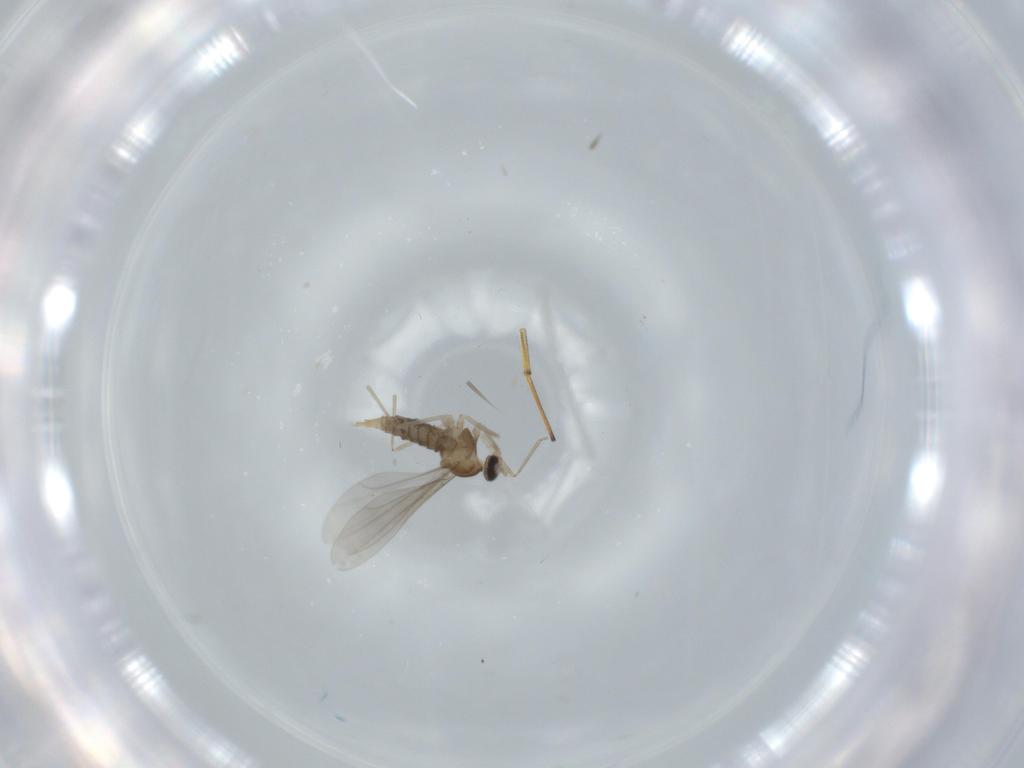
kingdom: Animalia
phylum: Arthropoda
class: Insecta
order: Diptera
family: Cecidomyiidae
